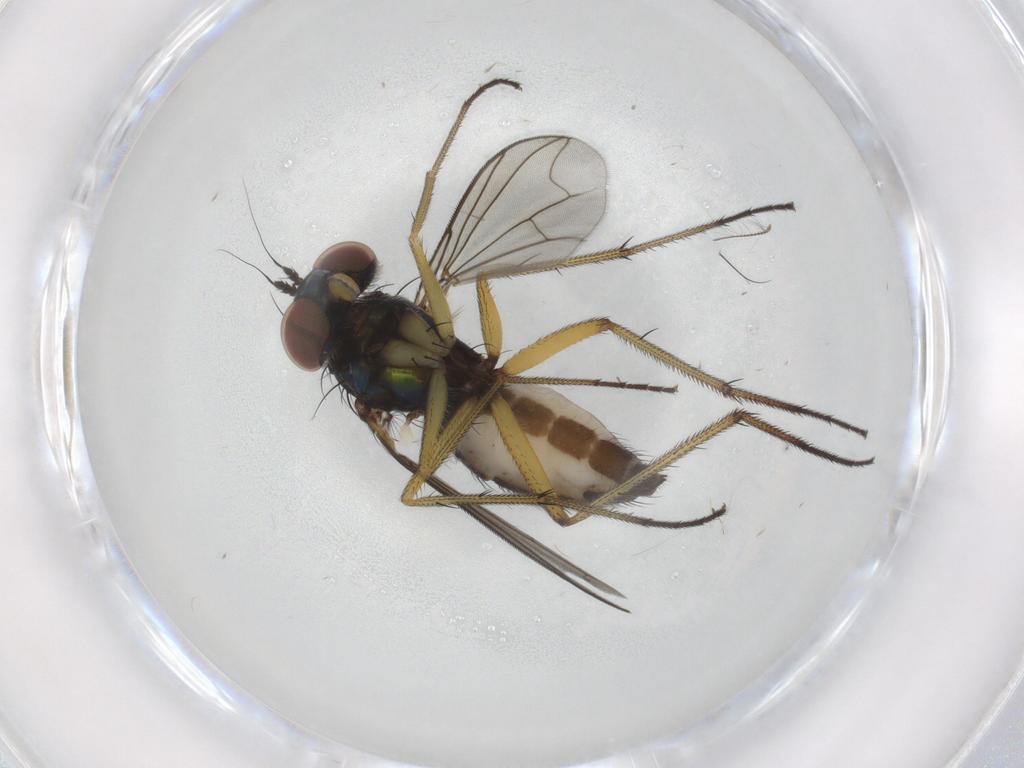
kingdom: Animalia
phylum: Arthropoda
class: Insecta
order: Diptera
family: Dolichopodidae
